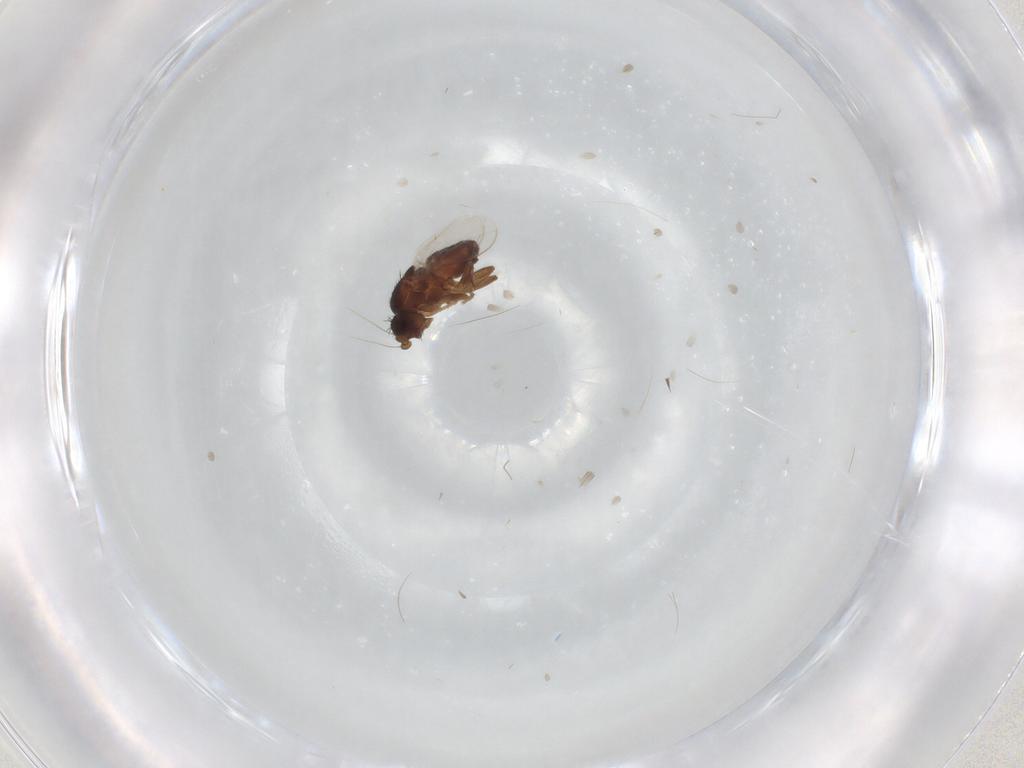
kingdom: Animalia
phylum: Arthropoda
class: Insecta
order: Diptera
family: Sphaeroceridae
